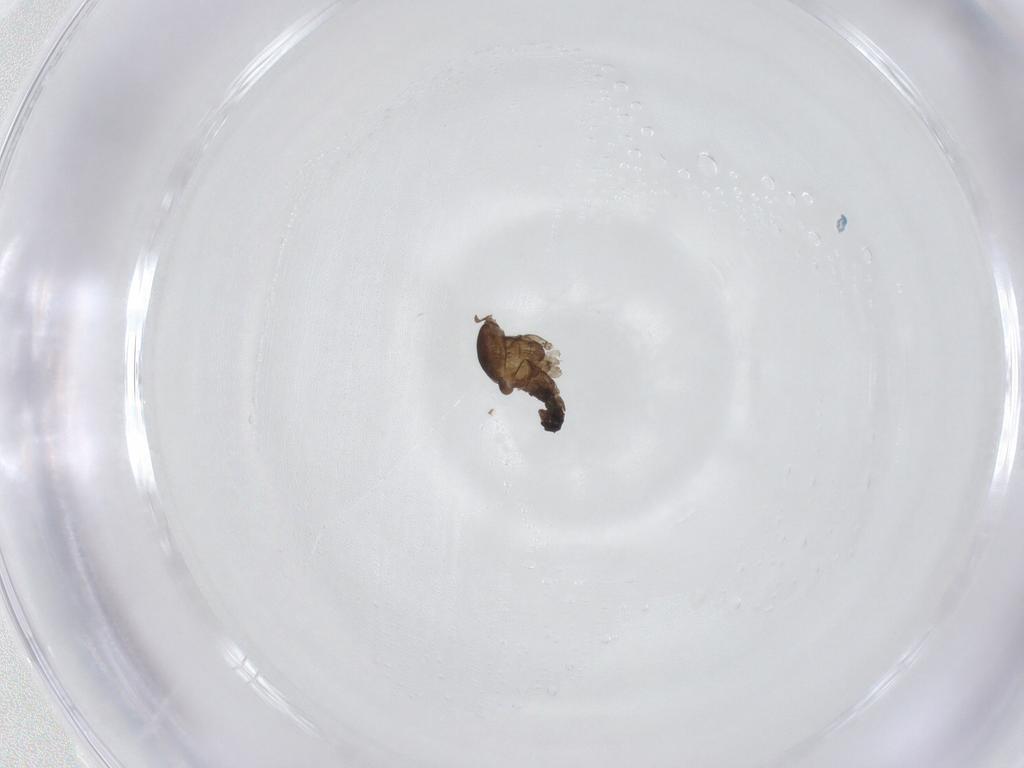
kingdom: Animalia
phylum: Arthropoda
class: Insecta
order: Diptera
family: Cecidomyiidae
